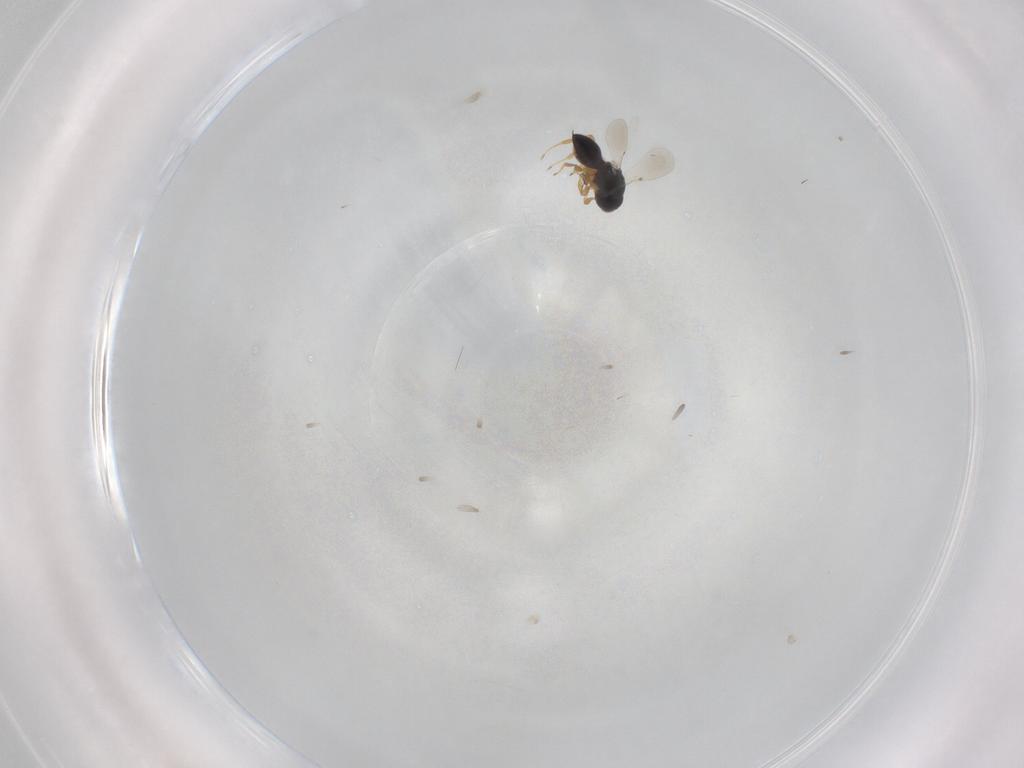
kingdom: Animalia
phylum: Arthropoda
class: Insecta
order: Hymenoptera
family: Platygastridae
